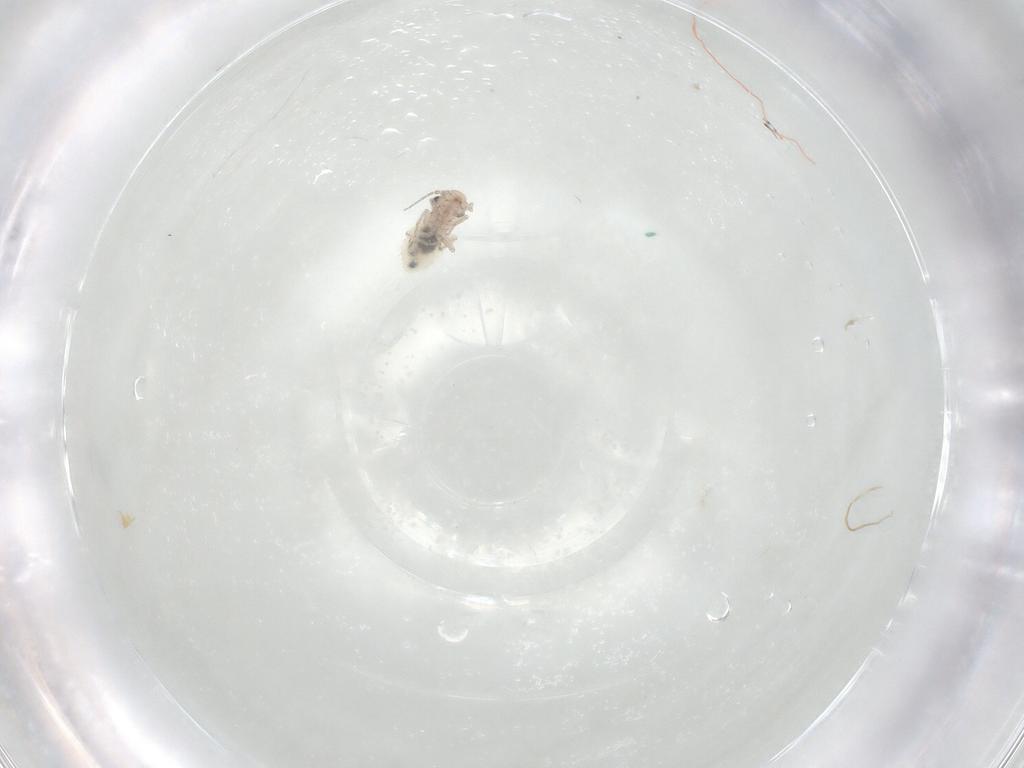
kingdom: Animalia
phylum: Arthropoda
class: Insecta
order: Psocodea
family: Trogiidae
